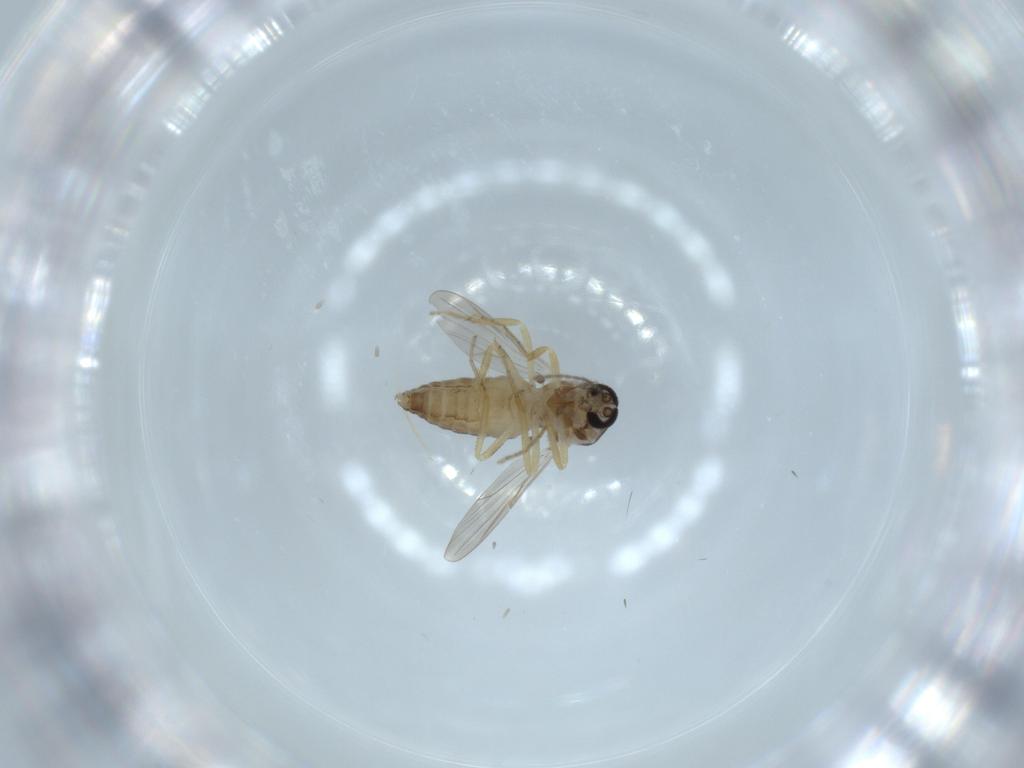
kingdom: Animalia
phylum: Arthropoda
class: Insecta
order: Diptera
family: Ceratopogonidae
